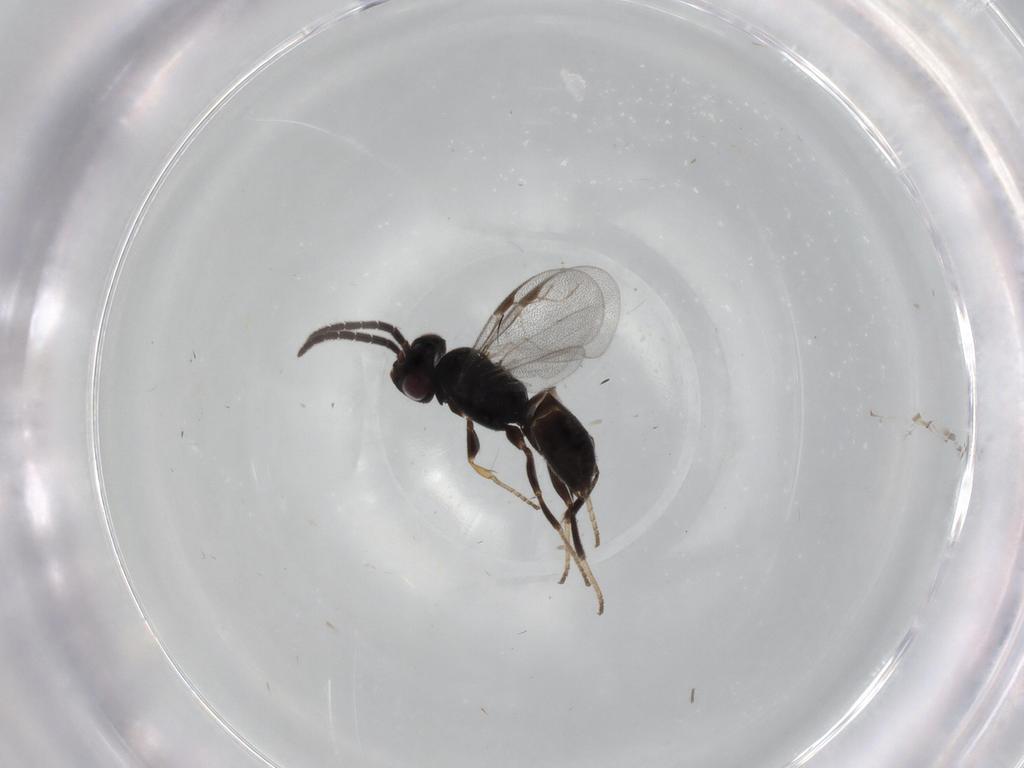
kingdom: Animalia
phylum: Arthropoda
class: Insecta
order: Hymenoptera
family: Dryinidae
